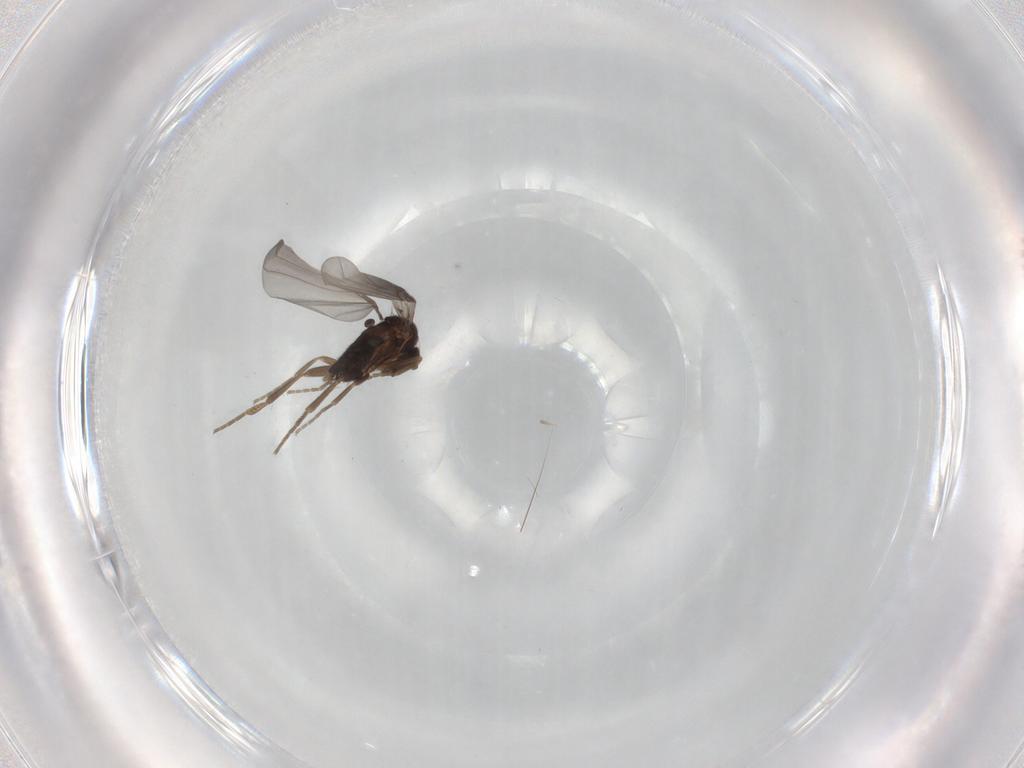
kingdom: Animalia
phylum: Arthropoda
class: Insecta
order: Diptera
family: Phoridae
